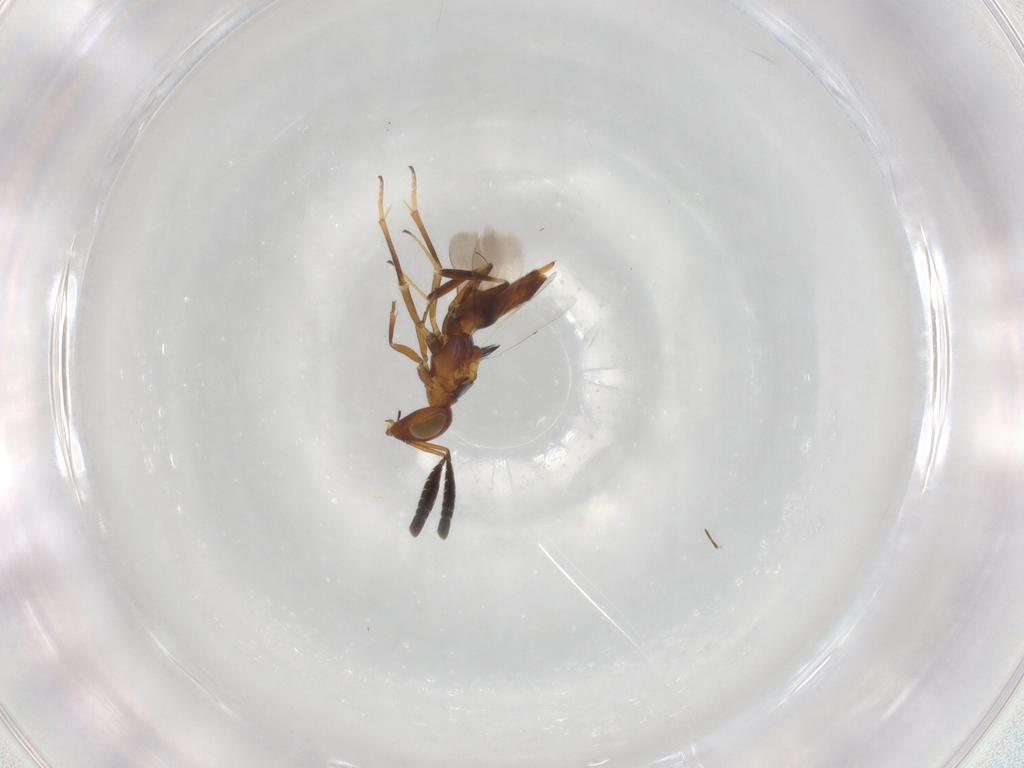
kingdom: Animalia
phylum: Arthropoda
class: Insecta
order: Hymenoptera
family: Encyrtidae
